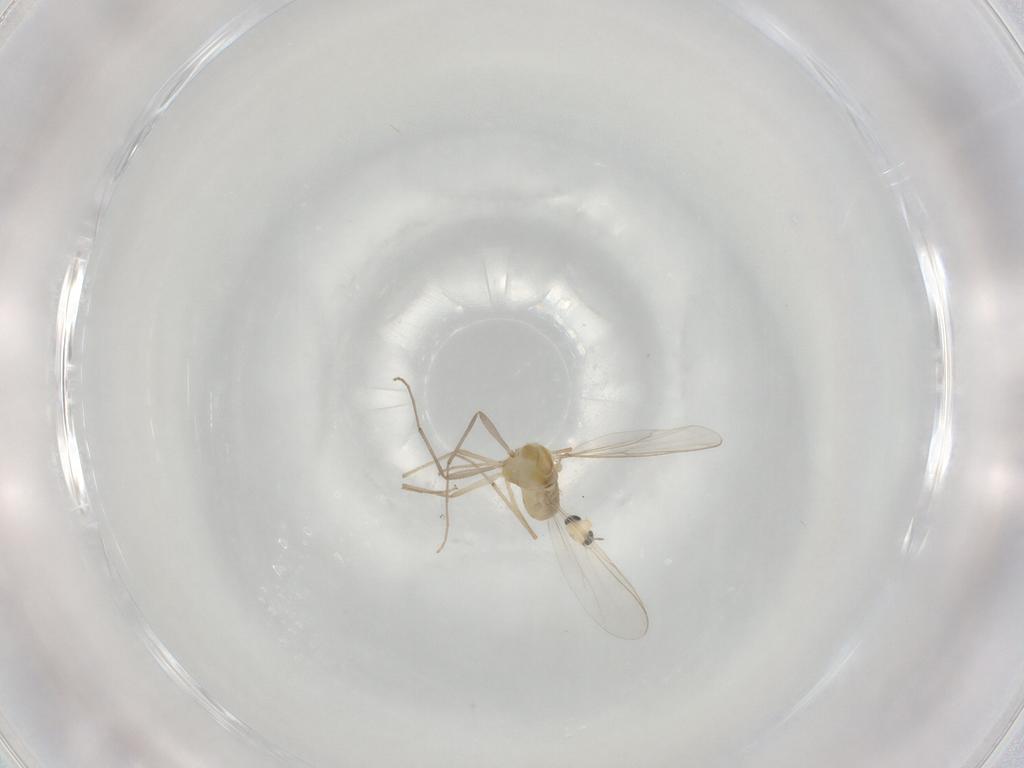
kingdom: Animalia
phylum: Arthropoda
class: Insecta
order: Diptera
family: Chironomidae
